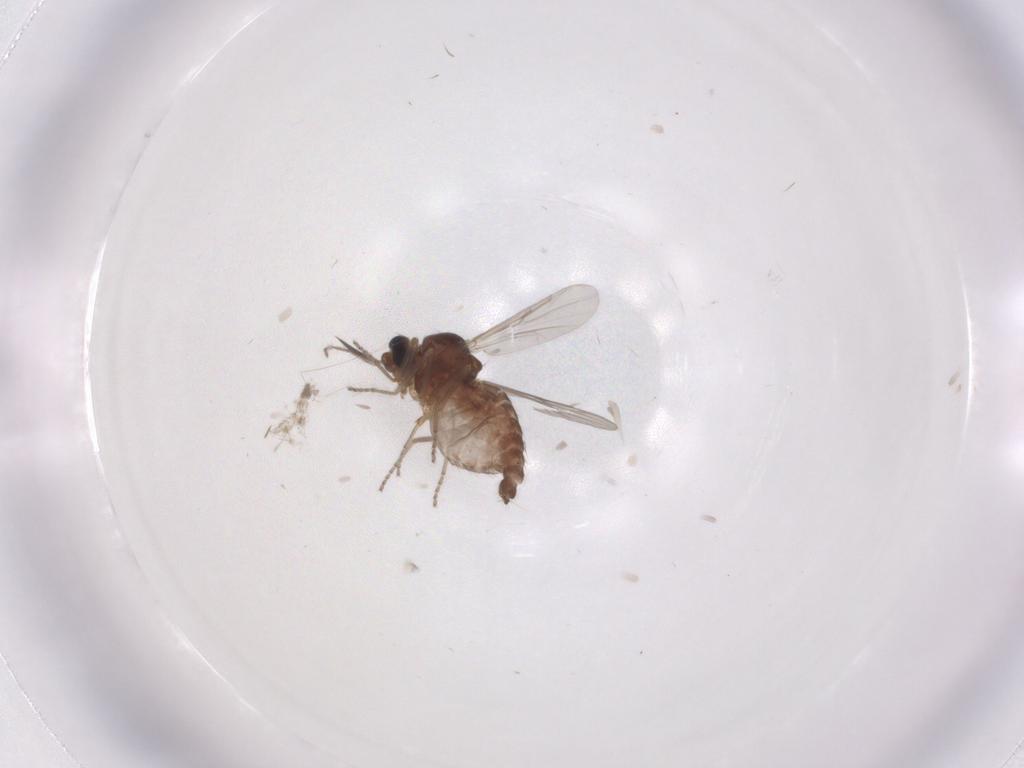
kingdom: Animalia
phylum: Arthropoda
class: Insecta
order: Diptera
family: Ceratopogonidae
